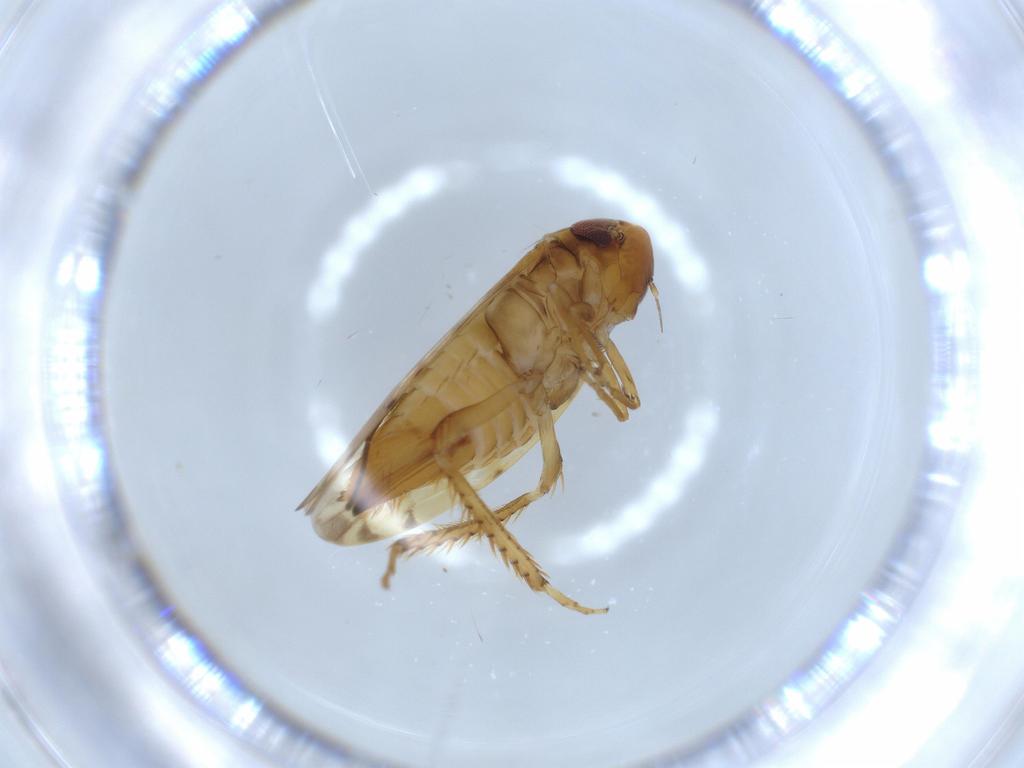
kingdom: Animalia
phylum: Arthropoda
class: Insecta
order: Hemiptera
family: Cicadellidae
